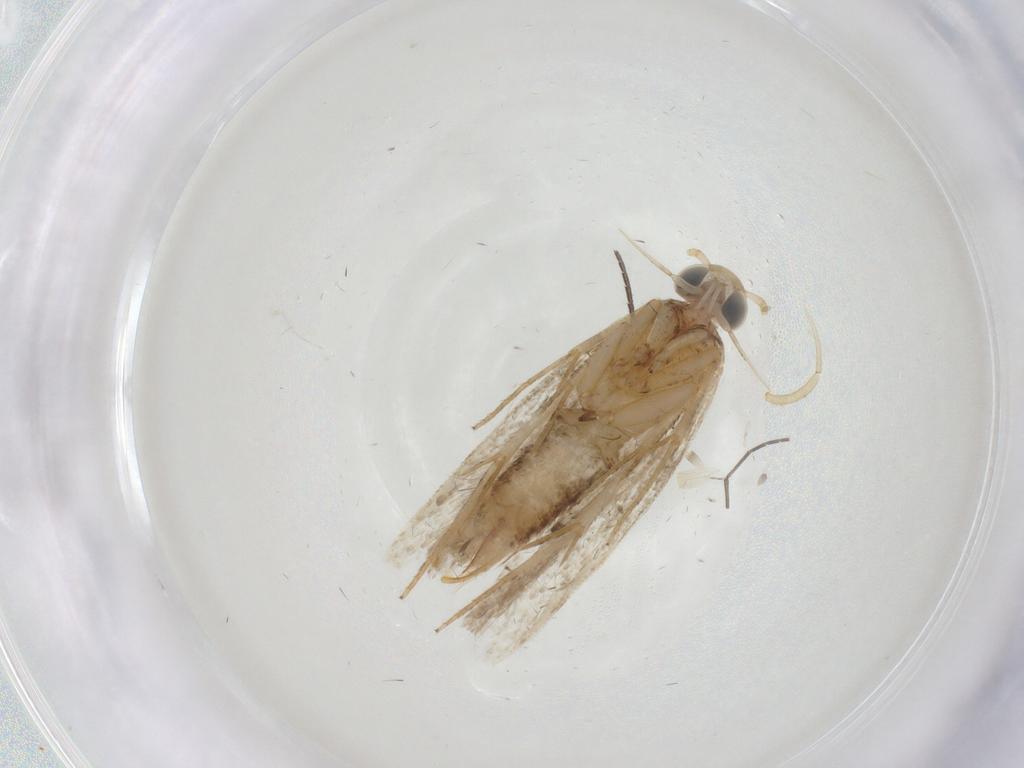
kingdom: Animalia
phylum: Arthropoda
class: Insecta
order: Lepidoptera
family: Gelechiidae
